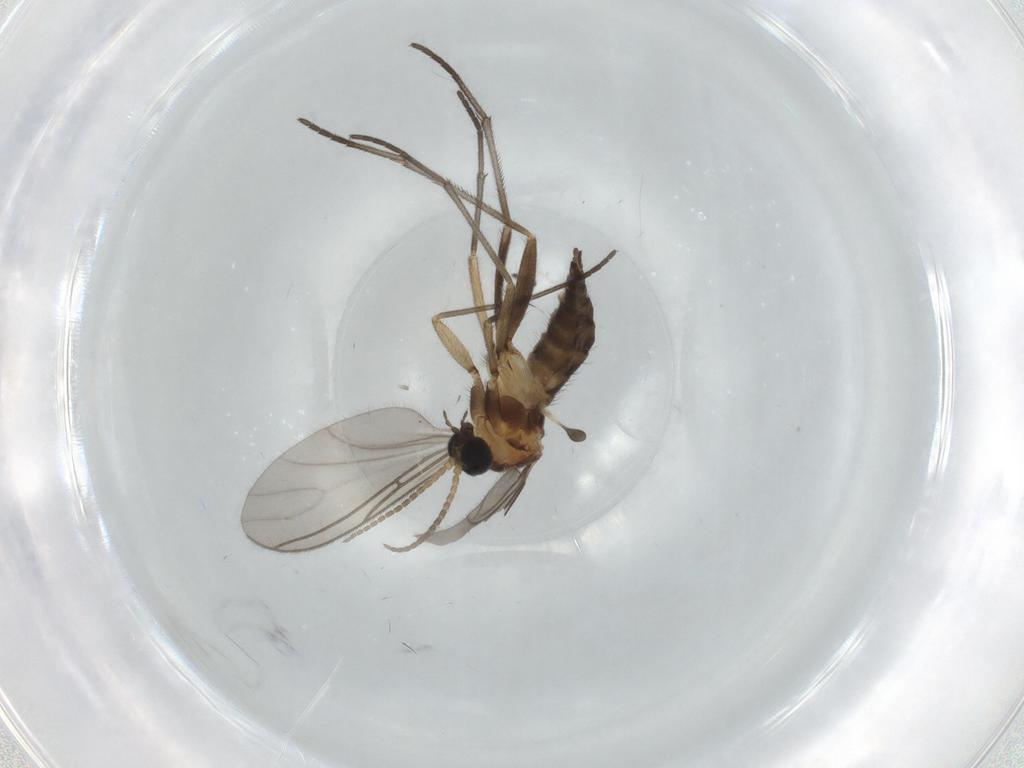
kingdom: Animalia
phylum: Arthropoda
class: Insecta
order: Diptera
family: Sciaridae
